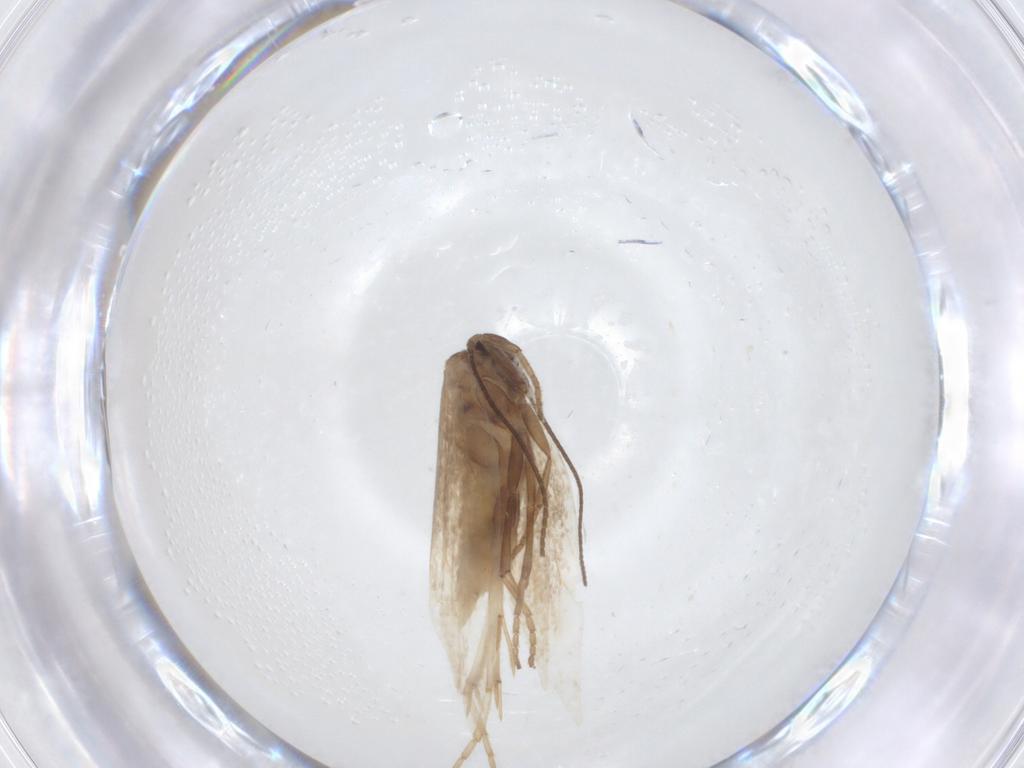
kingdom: Animalia
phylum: Arthropoda
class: Insecta
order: Lepidoptera
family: Elachistidae
